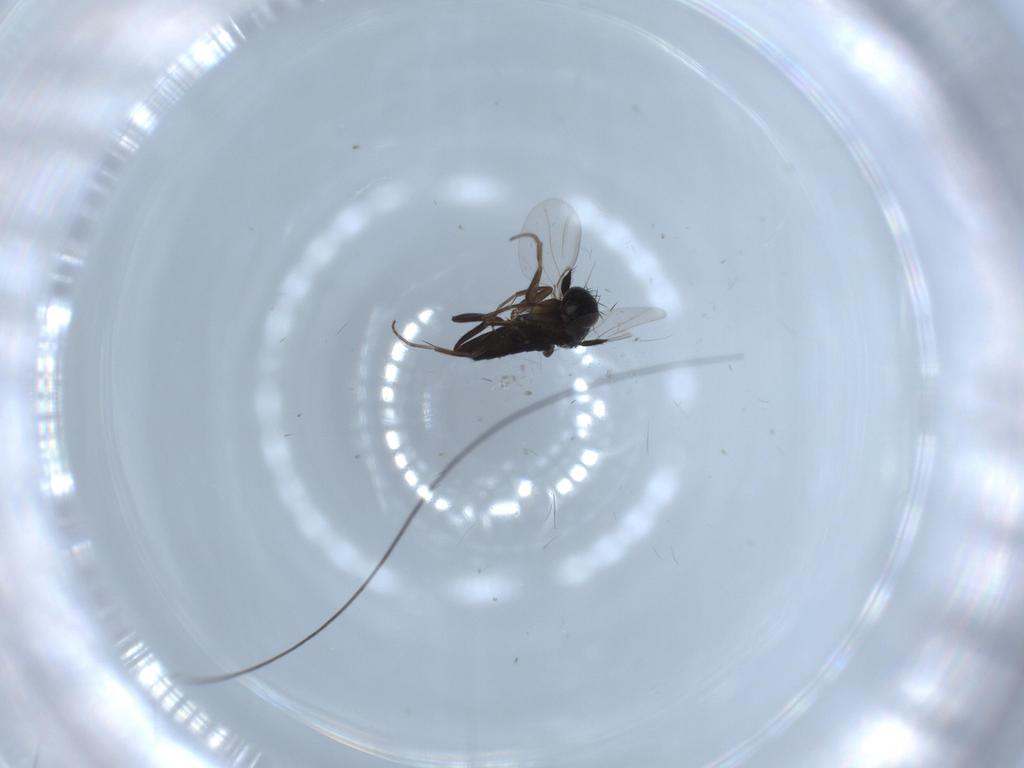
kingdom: Animalia
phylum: Arthropoda
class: Insecta
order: Diptera
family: Phoridae
